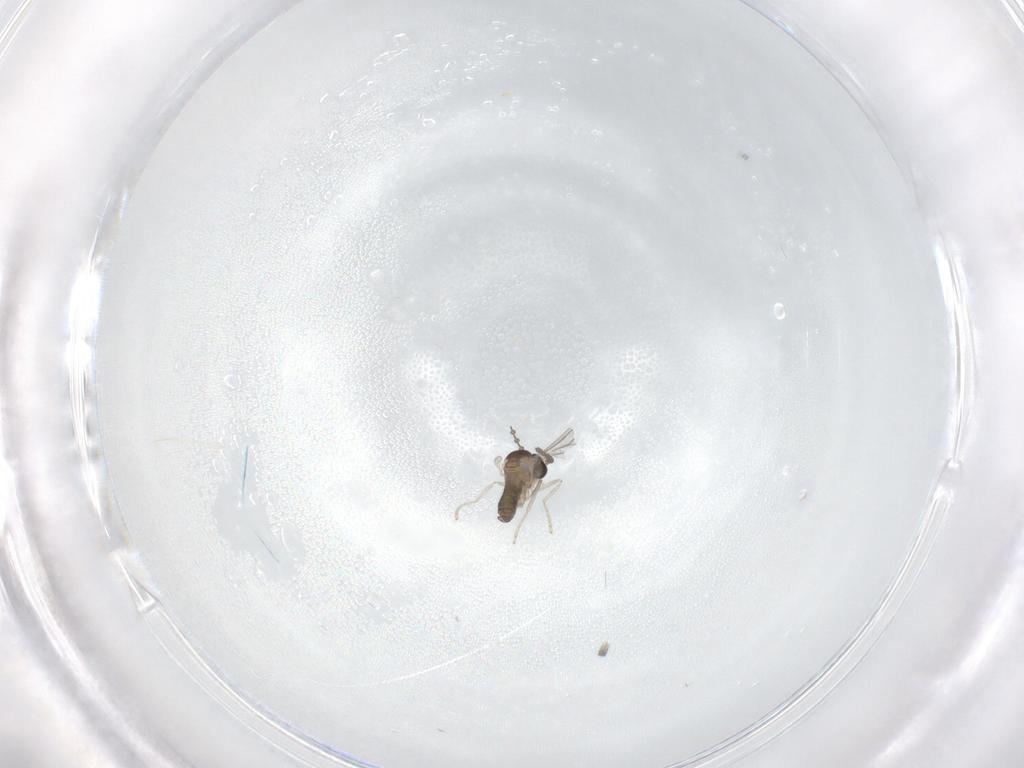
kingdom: Animalia
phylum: Arthropoda
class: Insecta
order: Diptera
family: Cecidomyiidae
